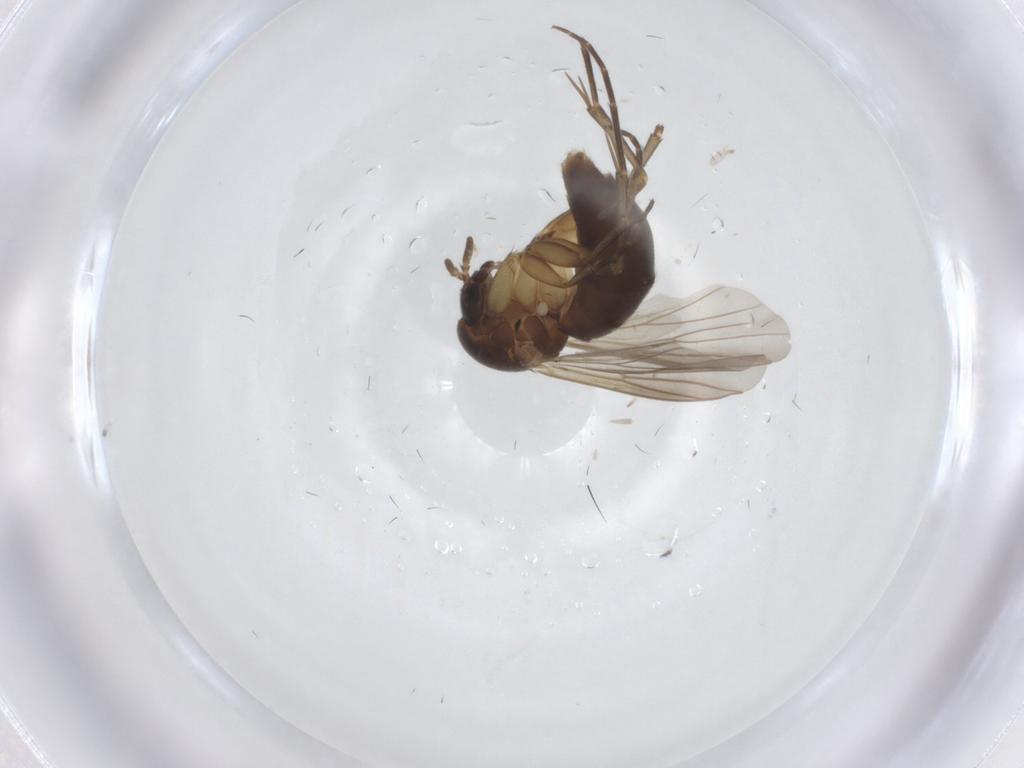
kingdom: Animalia
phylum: Arthropoda
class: Insecta
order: Diptera
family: Mycetophilidae
